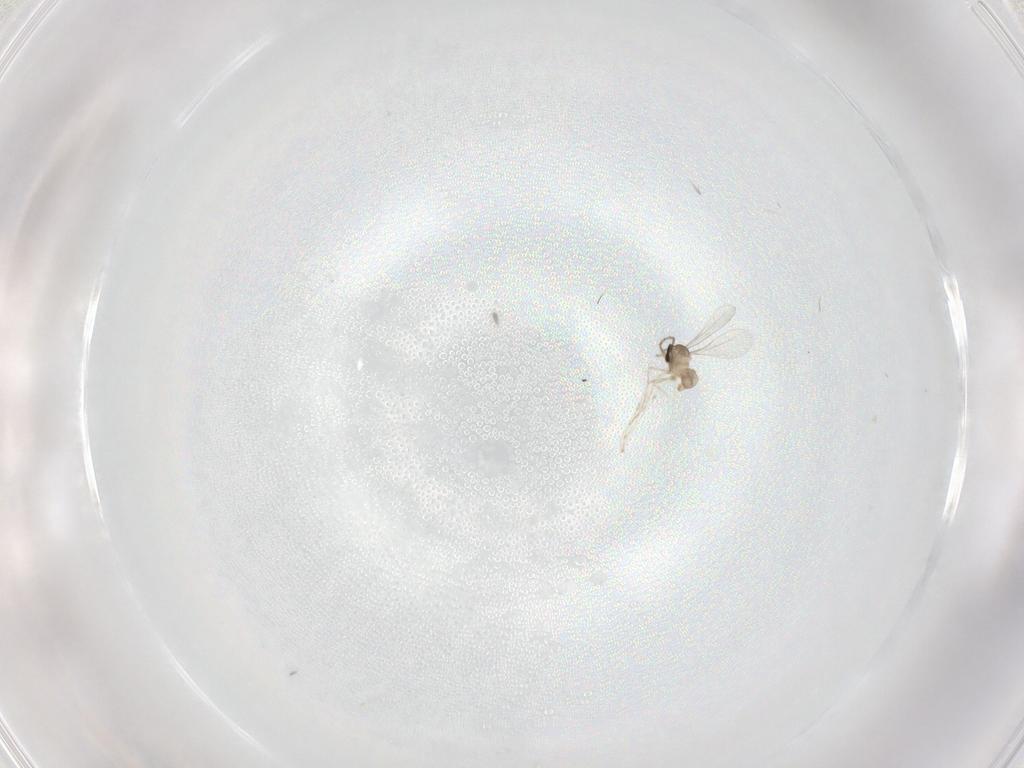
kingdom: Animalia
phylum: Arthropoda
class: Insecta
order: Diptera
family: Cecidomyiidae
